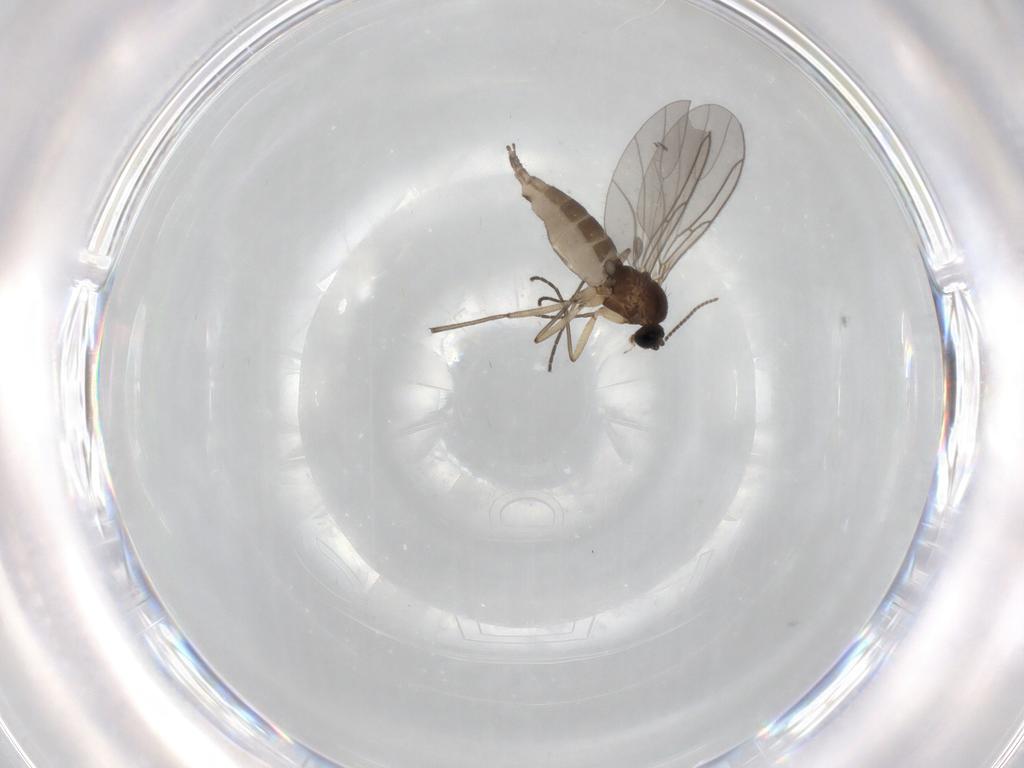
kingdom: Animalia
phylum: Arthropoda
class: Insecta
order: Diptera
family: Sciaridae
